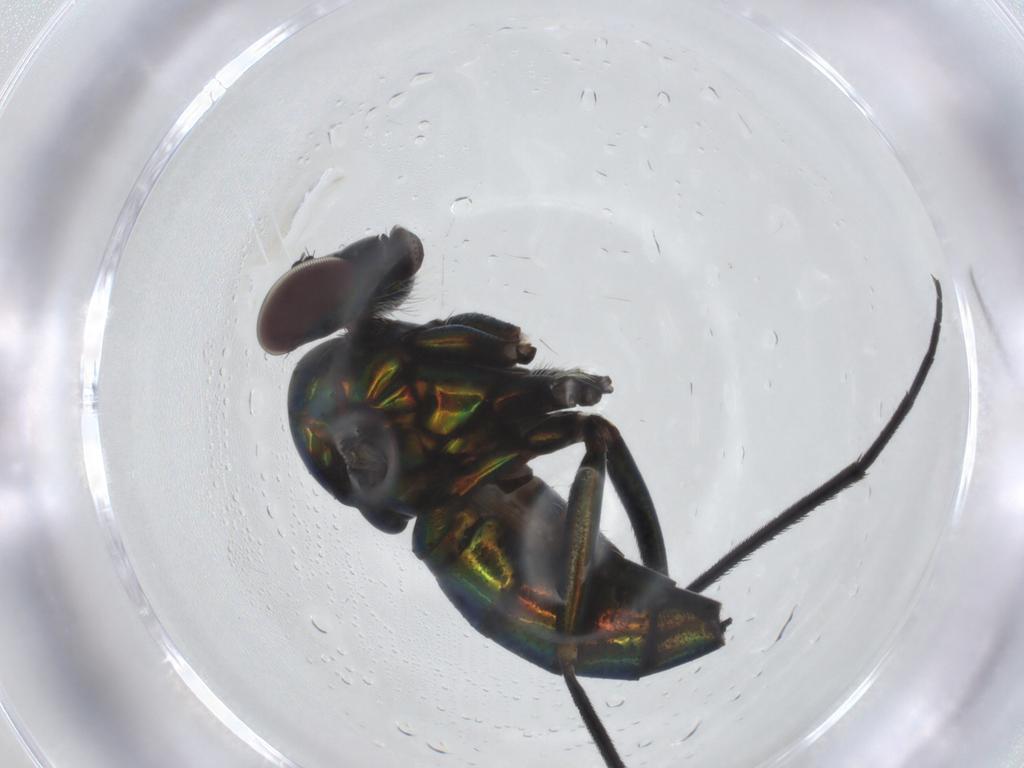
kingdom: Animalia
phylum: Arthropoda
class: Insecta
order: Diptera
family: Dolichopodidae
